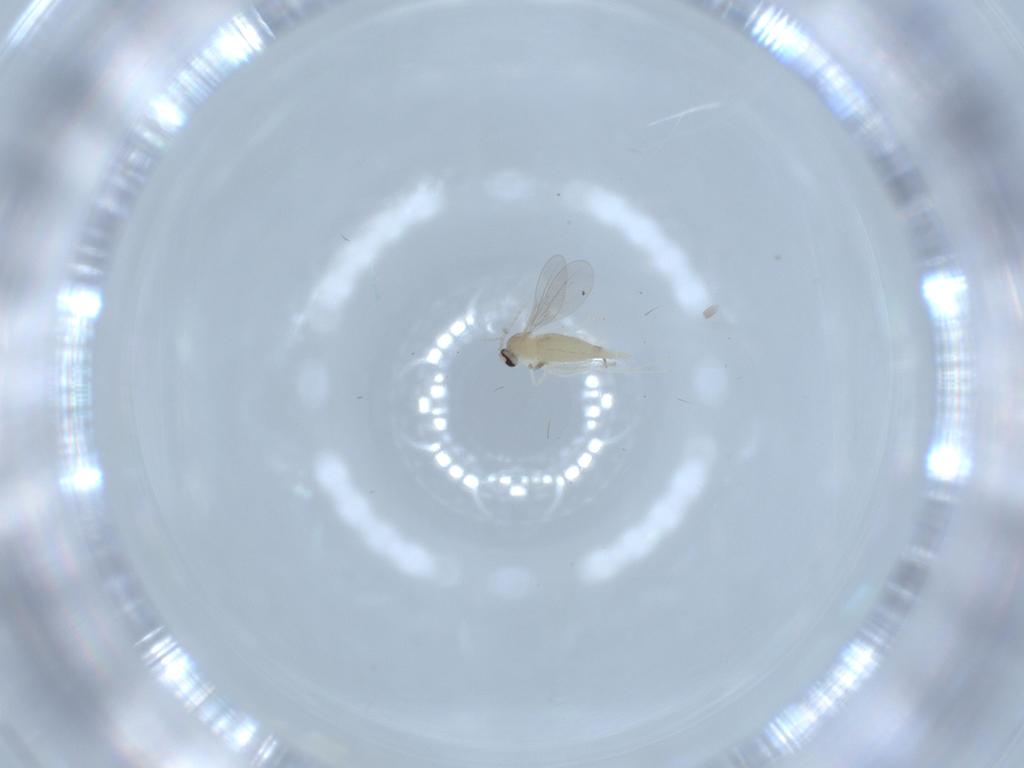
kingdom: Animalia
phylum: Arthropoda
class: Insecta
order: Diptera
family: Cecidomyiidae
